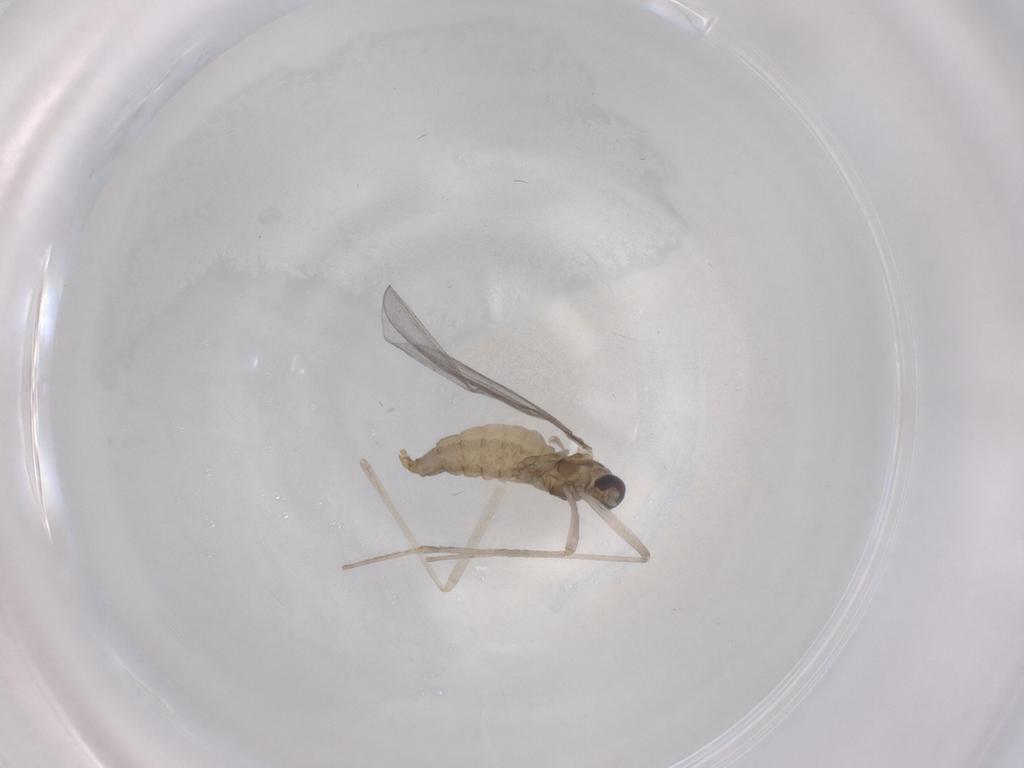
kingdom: Animalia
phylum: Arthropoda
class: Insecta
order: Diptera
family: Cecidomyiidae
